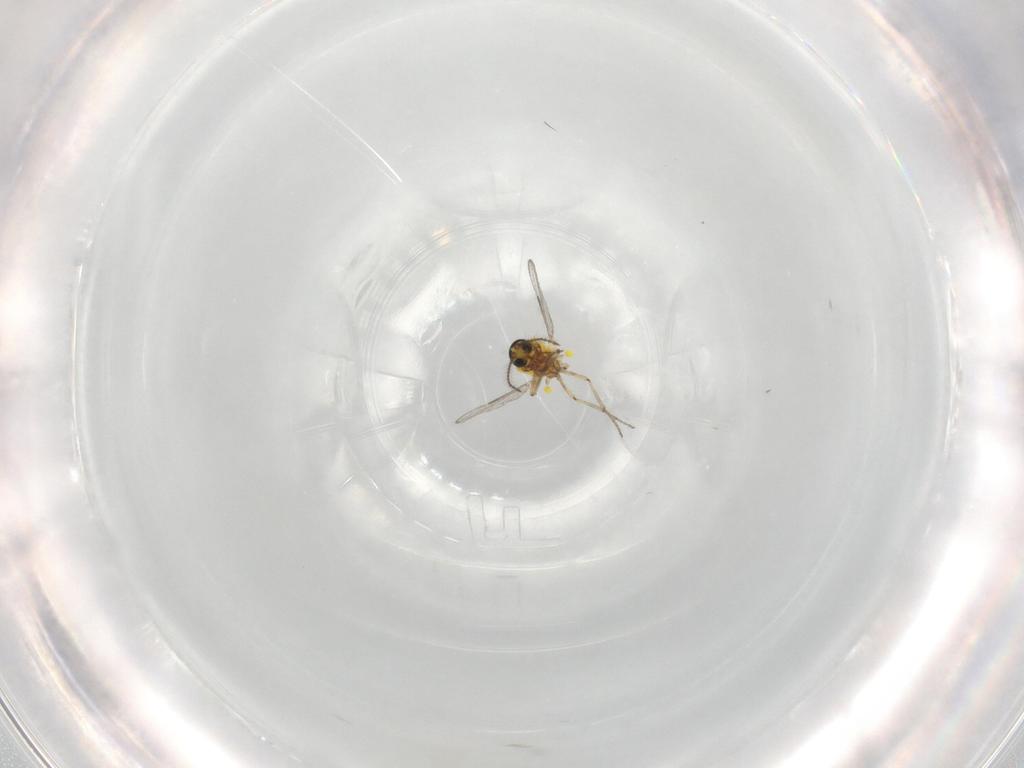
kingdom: Animalia
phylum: Arthropoda
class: Insecta
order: Diptera
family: Ceratopogonidae
